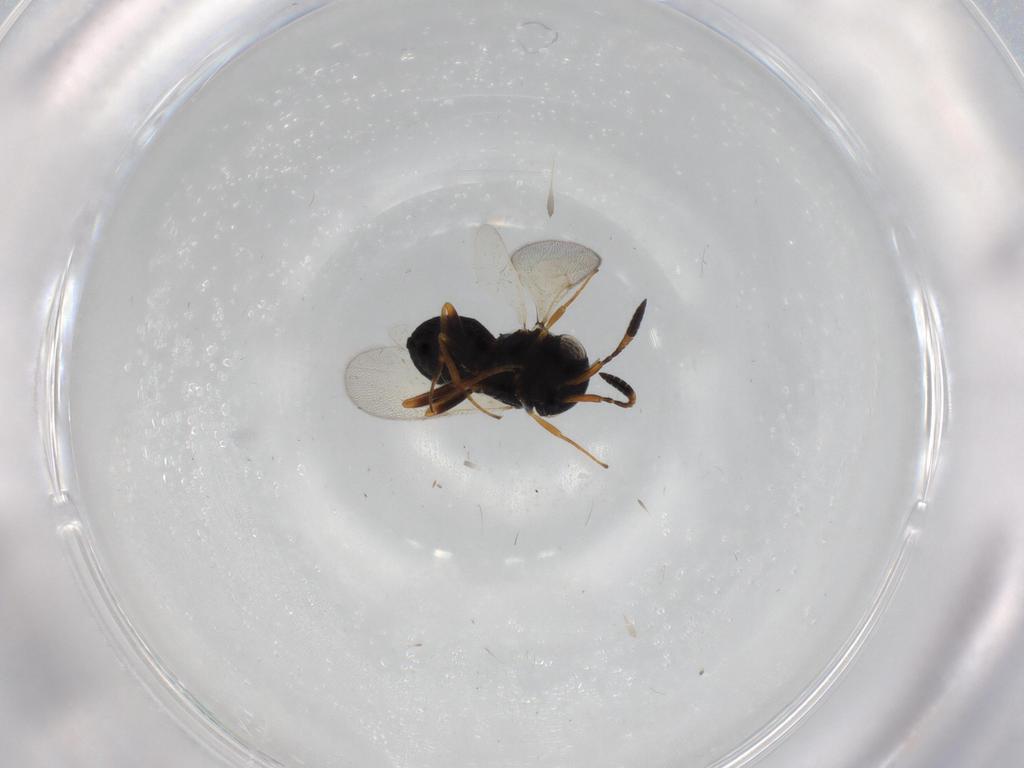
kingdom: Animalia
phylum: Arthropoda
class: Insecta
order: Hymenoptera
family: Scelionidae
